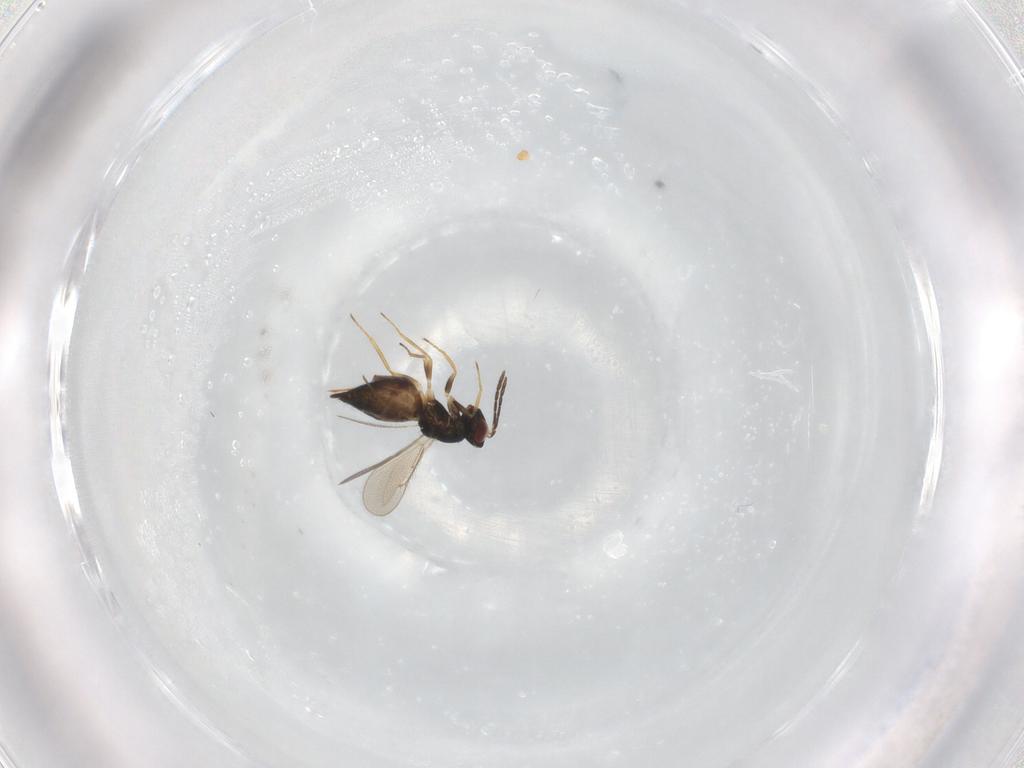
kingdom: Animalia
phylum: Arthropoda
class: Insecta
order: Hymenoptera
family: Eulophidae
